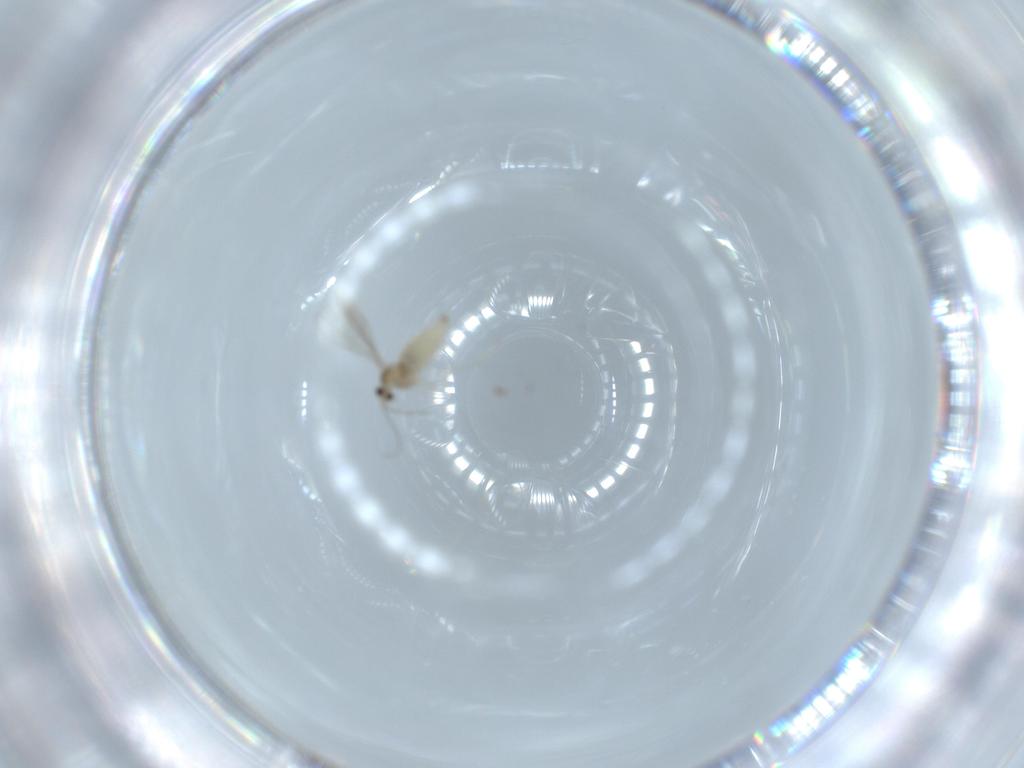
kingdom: Animalia
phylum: Arthropoda
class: Insecta
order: Diptera
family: Cecidomyiidae
